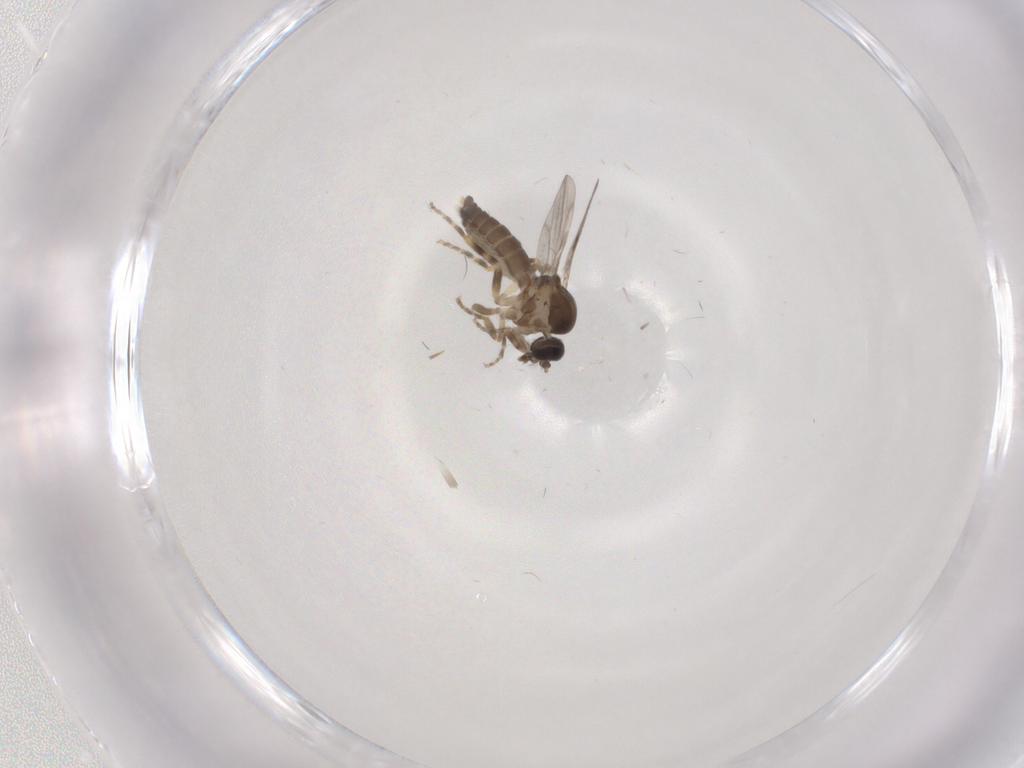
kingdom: Animalia
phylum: Arthropoda
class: Insecta
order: Diptera
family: Ceratopogonidae
